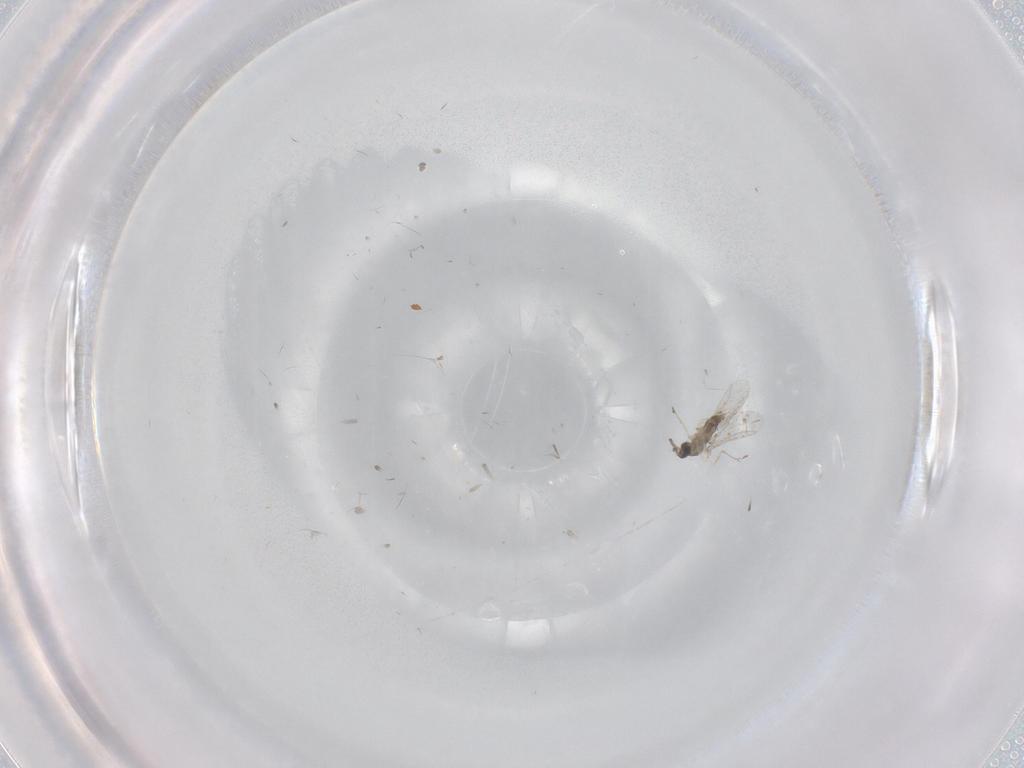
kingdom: Animalia
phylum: Arthropoda
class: Insecta
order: Diptera
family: Cecidomyiidae
